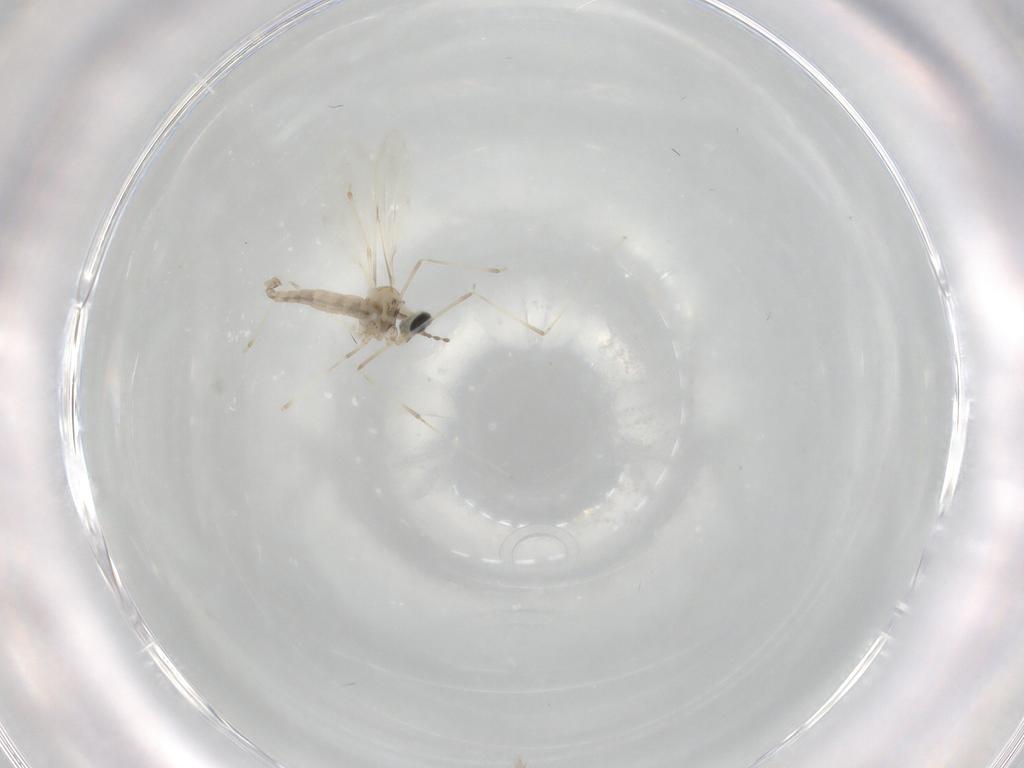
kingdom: Animalia
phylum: Arthropoda
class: Insecta
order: Diptera
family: Cecidomyiidae
